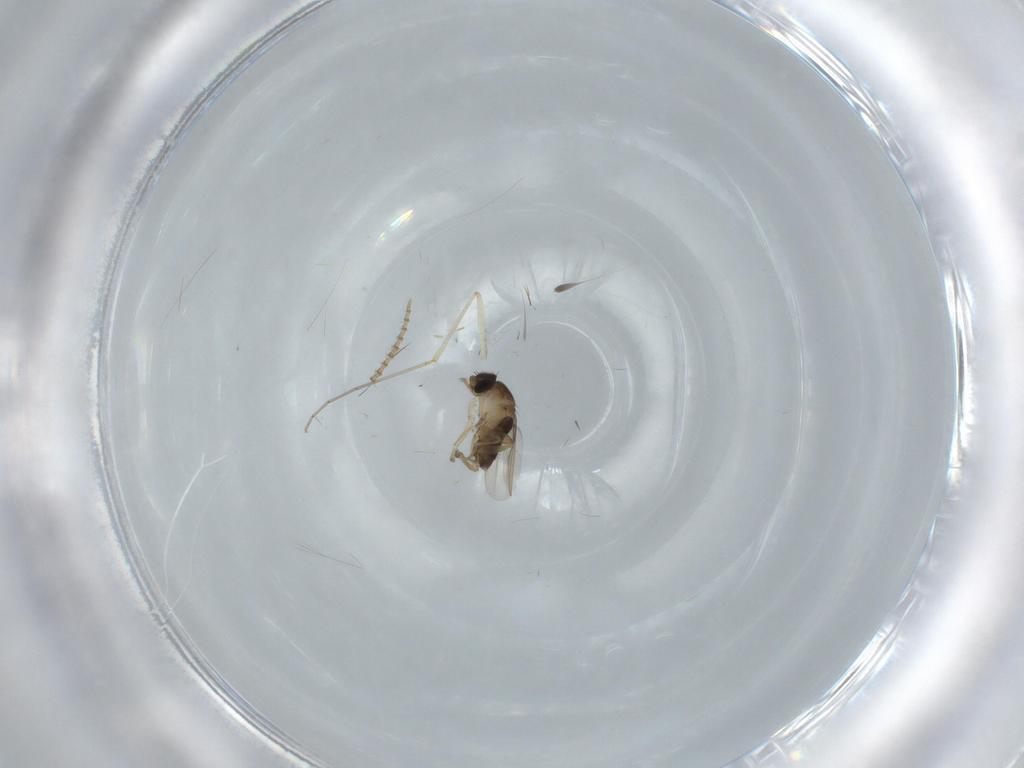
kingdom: Animalia
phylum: Arthropoda
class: Insecta
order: Diptera
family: Phoridae
